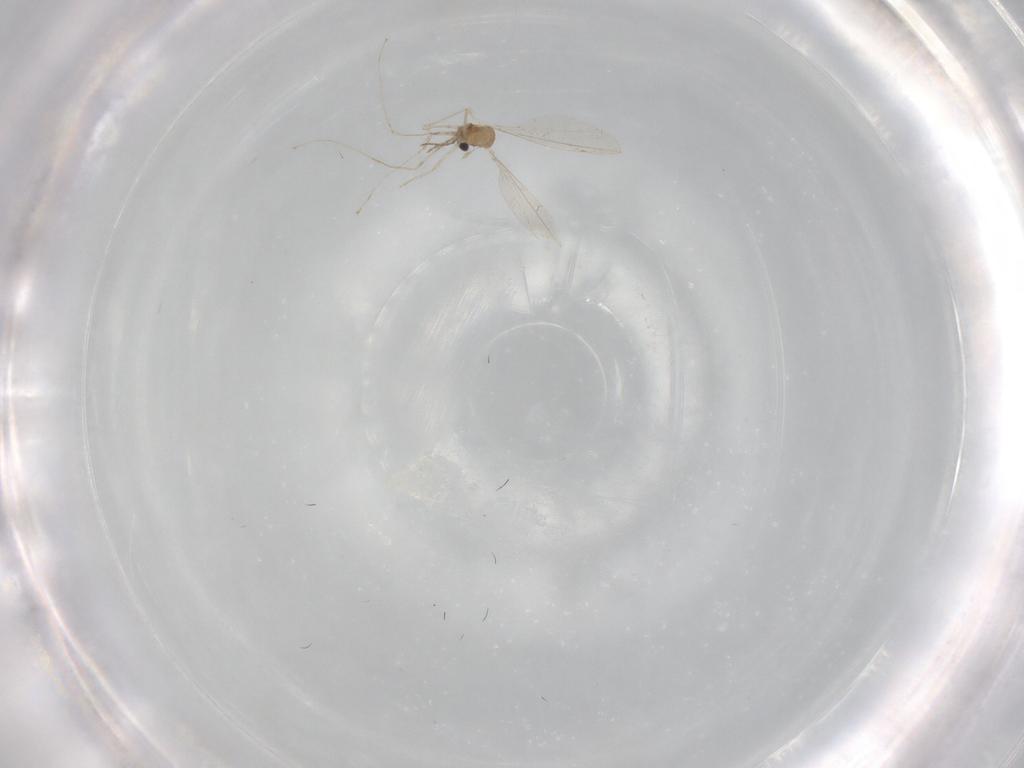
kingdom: Animalia
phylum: Arthropoda
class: Insecta
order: Diptera
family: Cecidomyiidae
